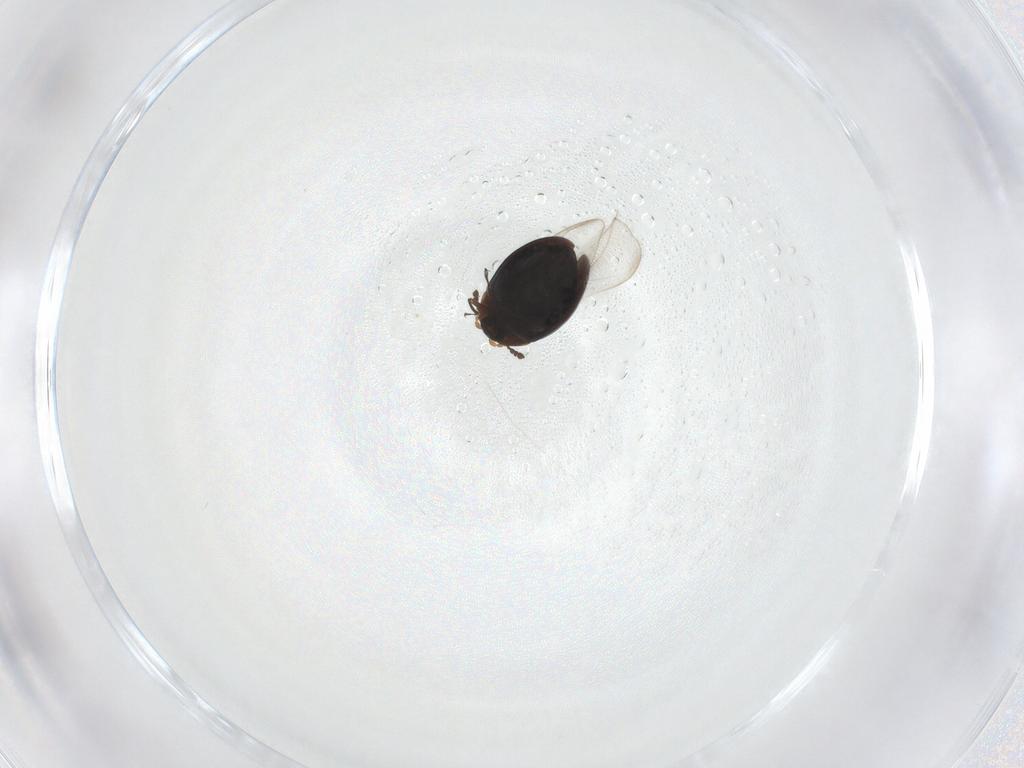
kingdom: Animalia
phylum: Arthropoda
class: Insecta
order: Coleoptera
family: Corylophidae
